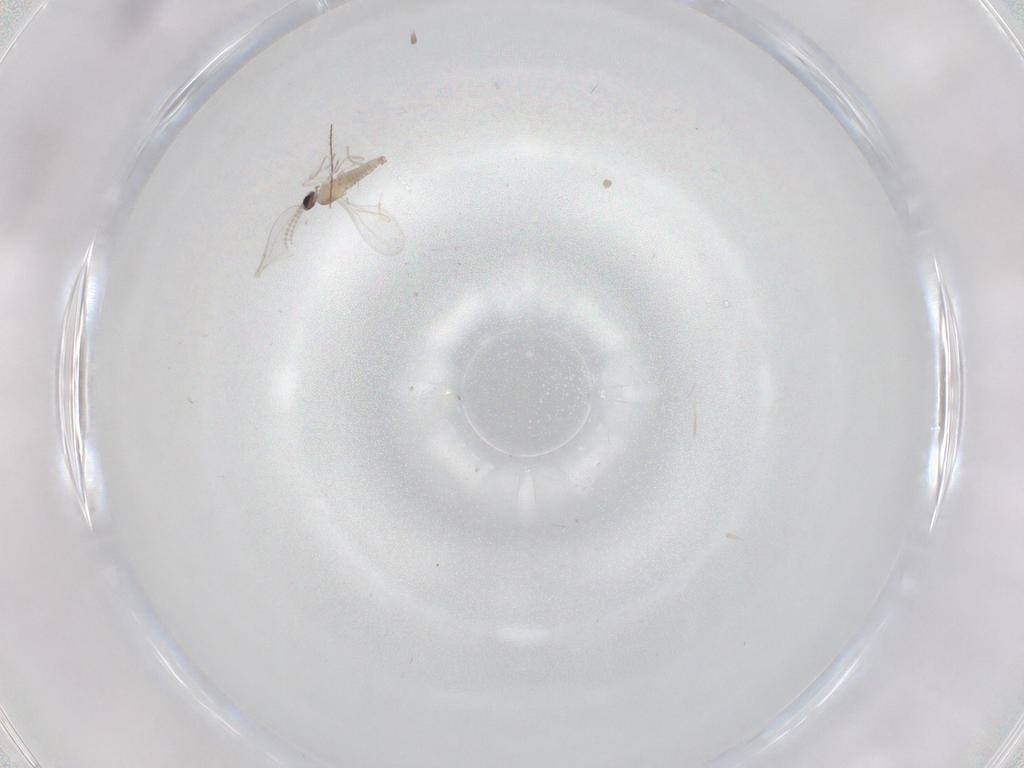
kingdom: Animalia
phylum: Arthropoda
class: Insecta
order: Diptera
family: Cecidomyiidae
